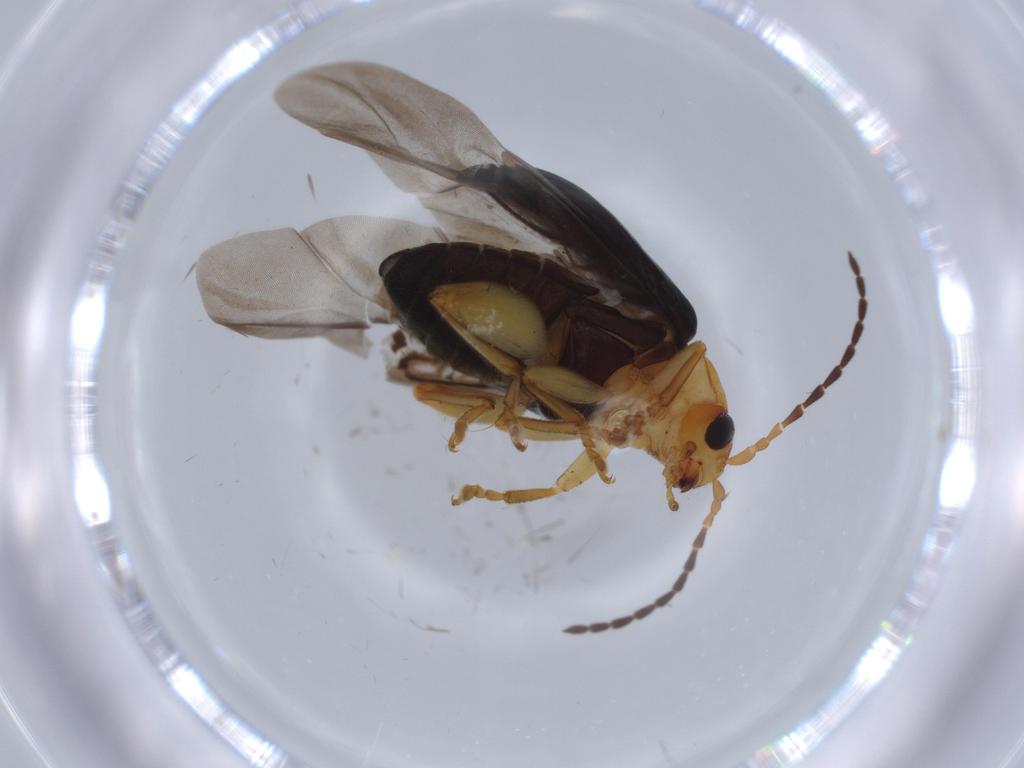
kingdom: Animalia
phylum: Arthropoda
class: Insecta
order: Coleoptera
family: Chrysomelidae
